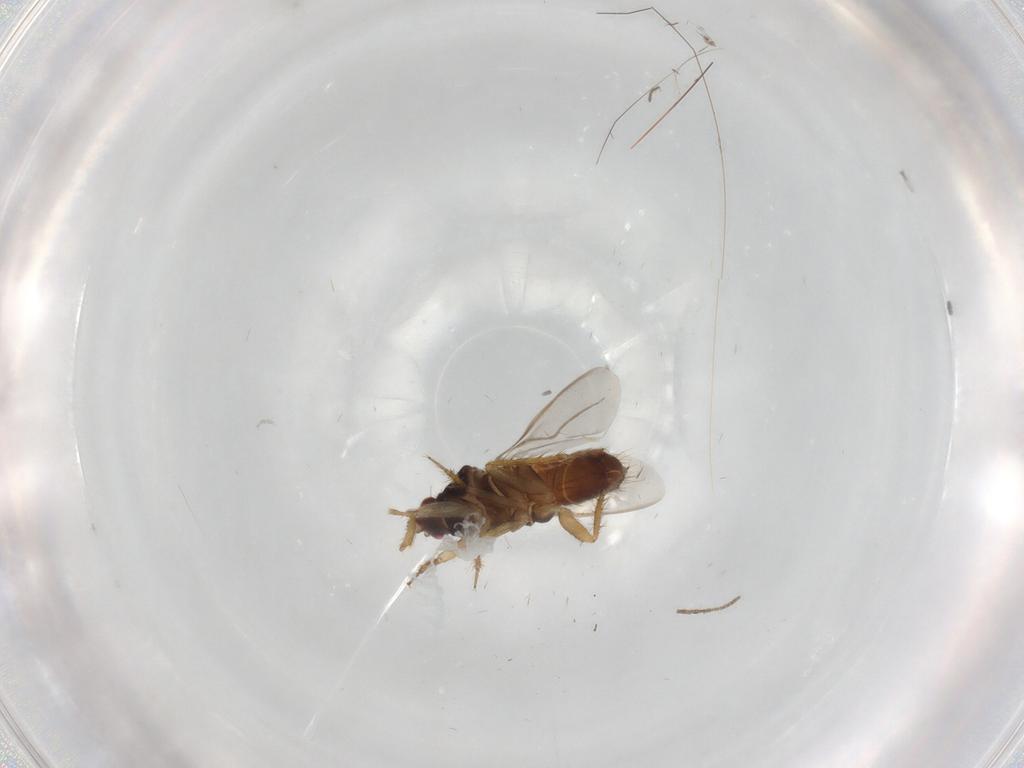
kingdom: Animalia
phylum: Arthropoda
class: Insecta
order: Hemiptera
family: Ceratocombidae
